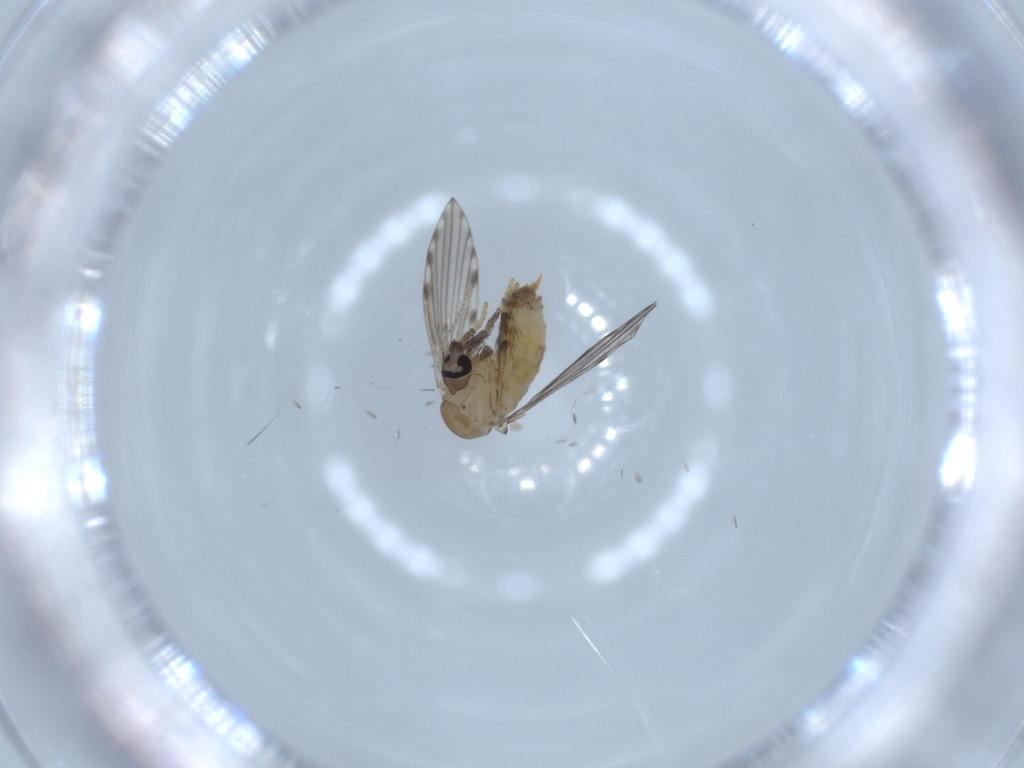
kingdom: Animalia
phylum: Arthropoda
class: Insecta
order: Diptera
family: Psychodidae
